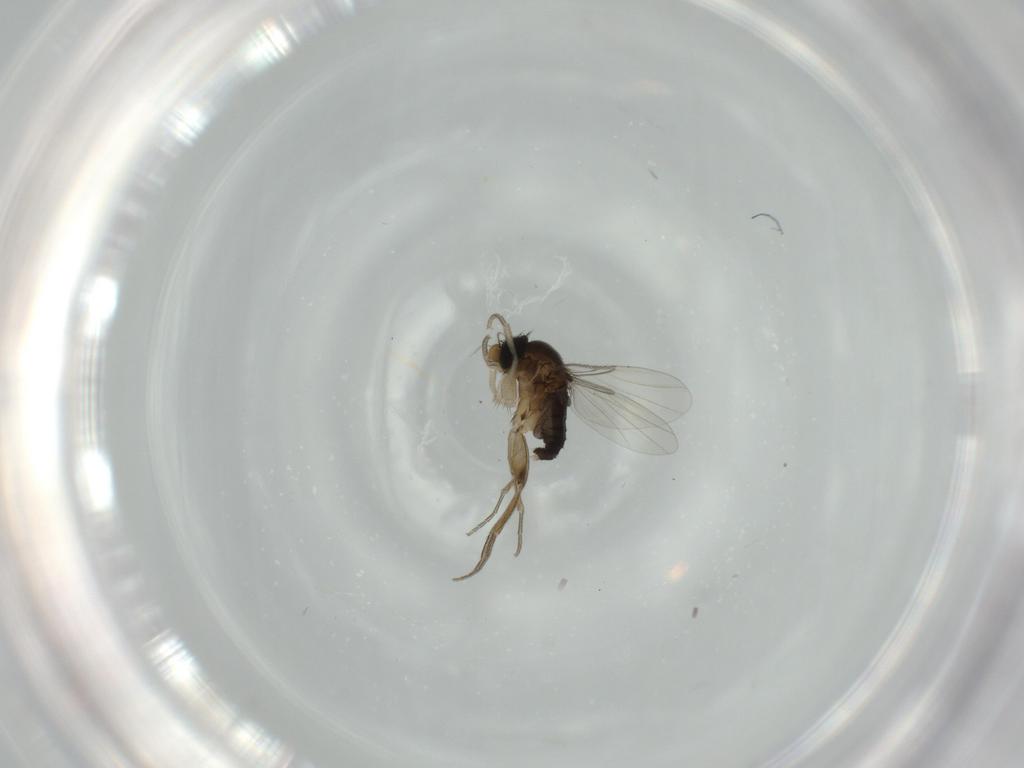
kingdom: Animalia
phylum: Arthropoda
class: Insecta
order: Diptera
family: Phoridae
